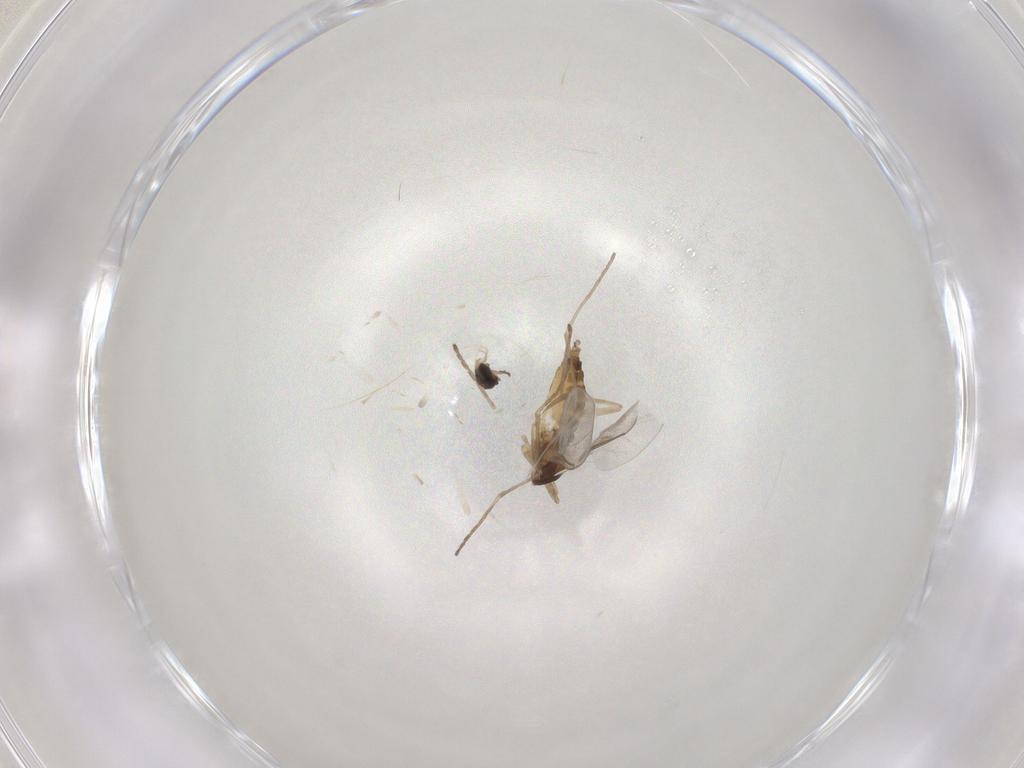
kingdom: Animalia
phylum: Arthropoda
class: Insecta
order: Diptera
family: Cecidomyiidae
